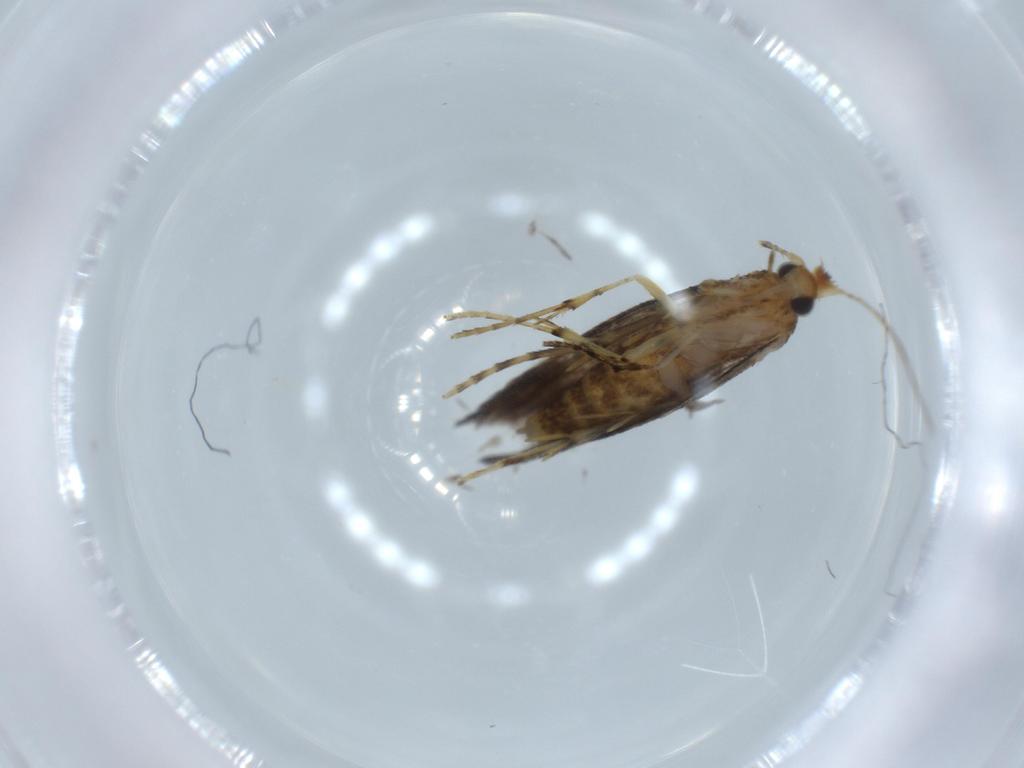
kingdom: Animalia
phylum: Arthropoda
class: Insecta
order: Lepidoptera
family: Argyresthiidae
